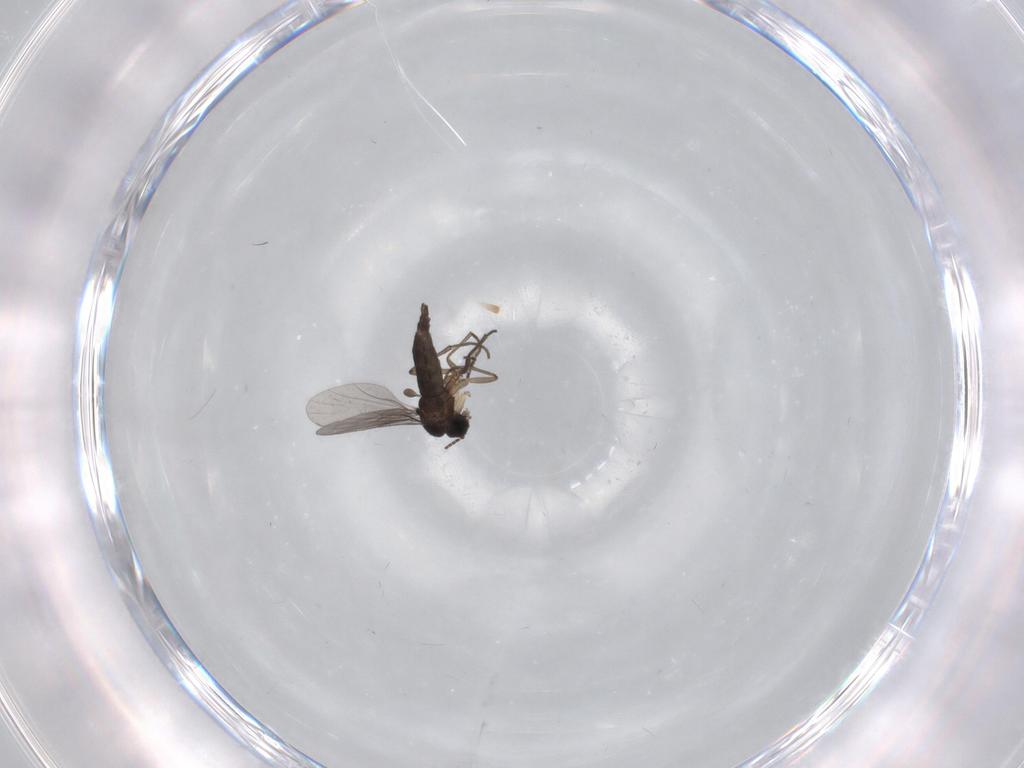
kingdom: Animalia
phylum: Arthropoda
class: Insecta
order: Diptera
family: Sciaridae
